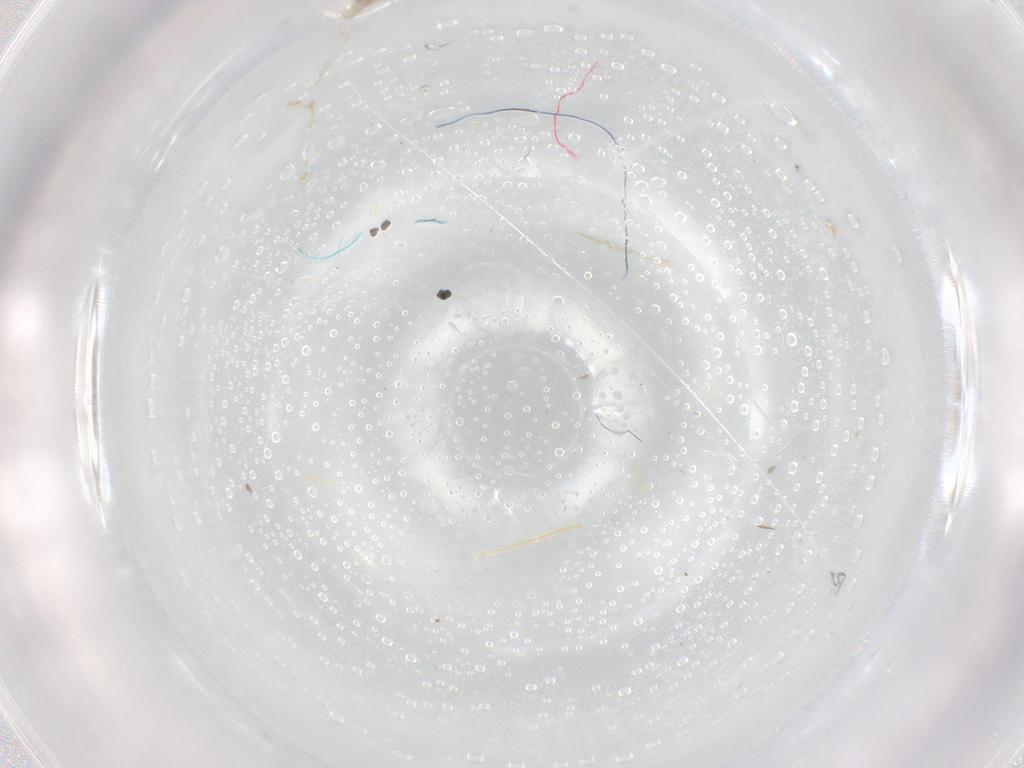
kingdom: Animalia
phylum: Arthropoda
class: Insecta
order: Diptera
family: Cecidomyiidae
